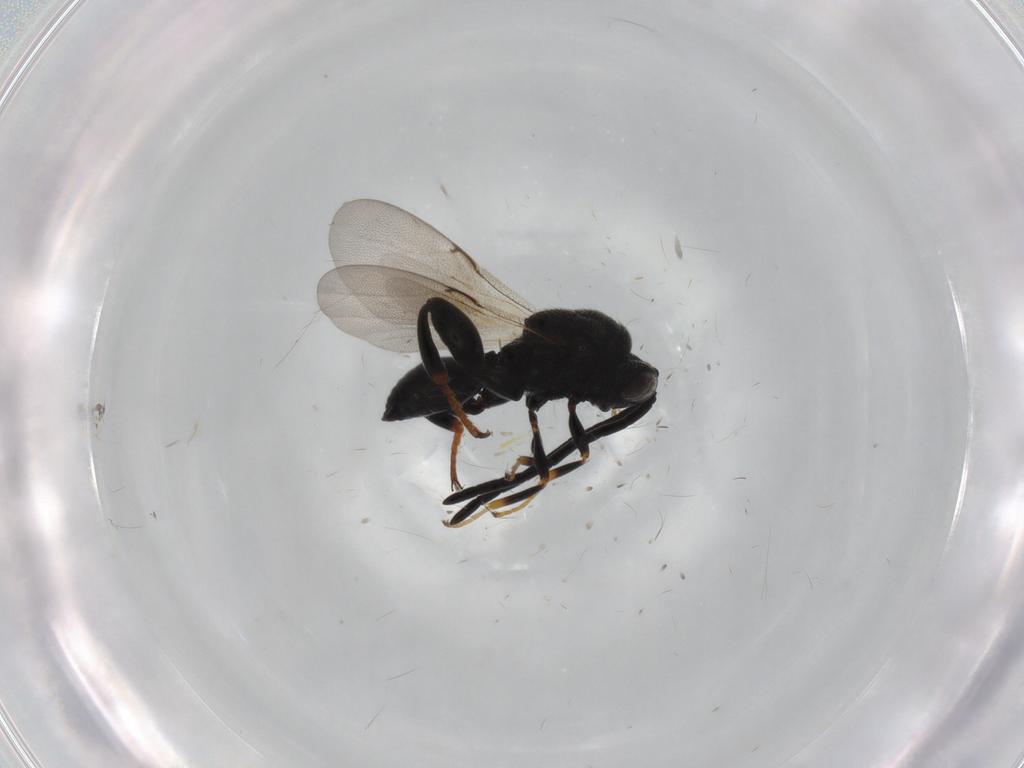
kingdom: Animalia
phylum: Arthropoda
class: Insecta
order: Hymenoptera
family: Bethylidae
